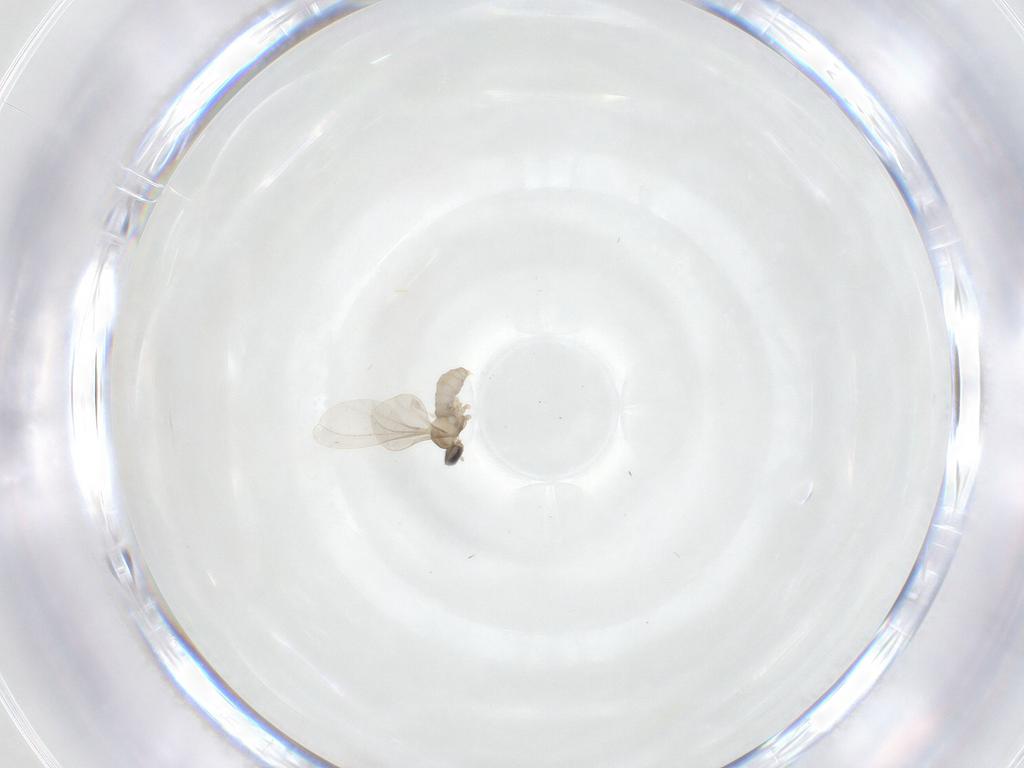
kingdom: Animalia
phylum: Arthropoda
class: Insecta
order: Diptera
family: Cecidomyiidae
